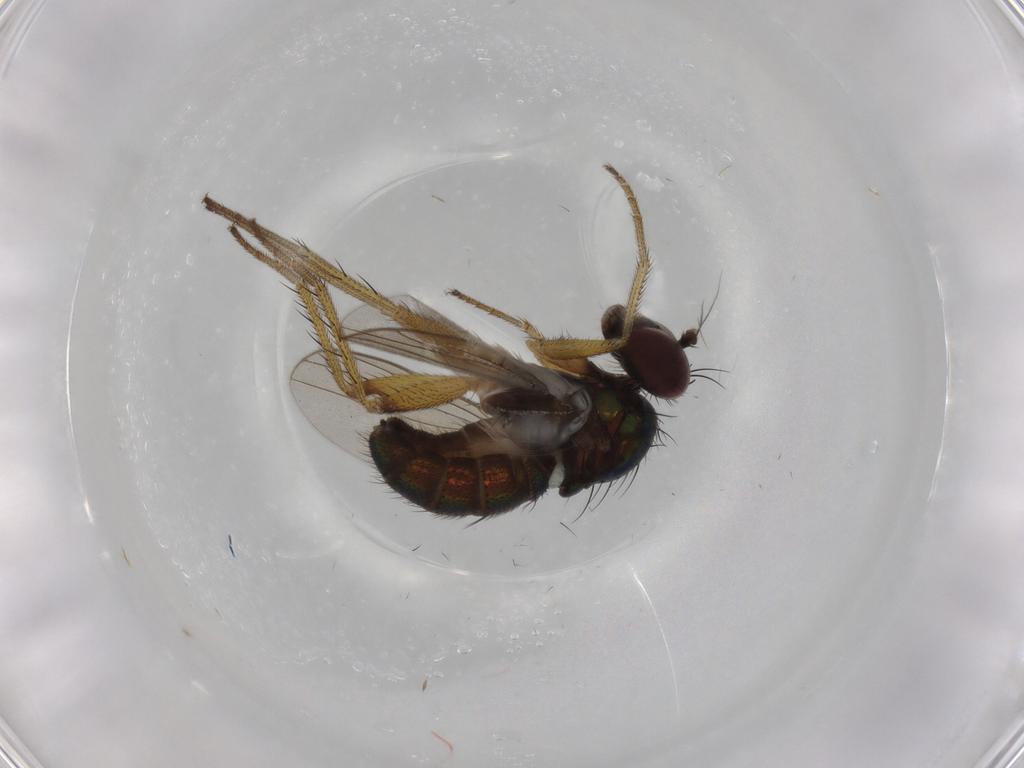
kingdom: Animalia
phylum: Arthropoda
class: Insecta
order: Diptera
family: Dolichopodidae
